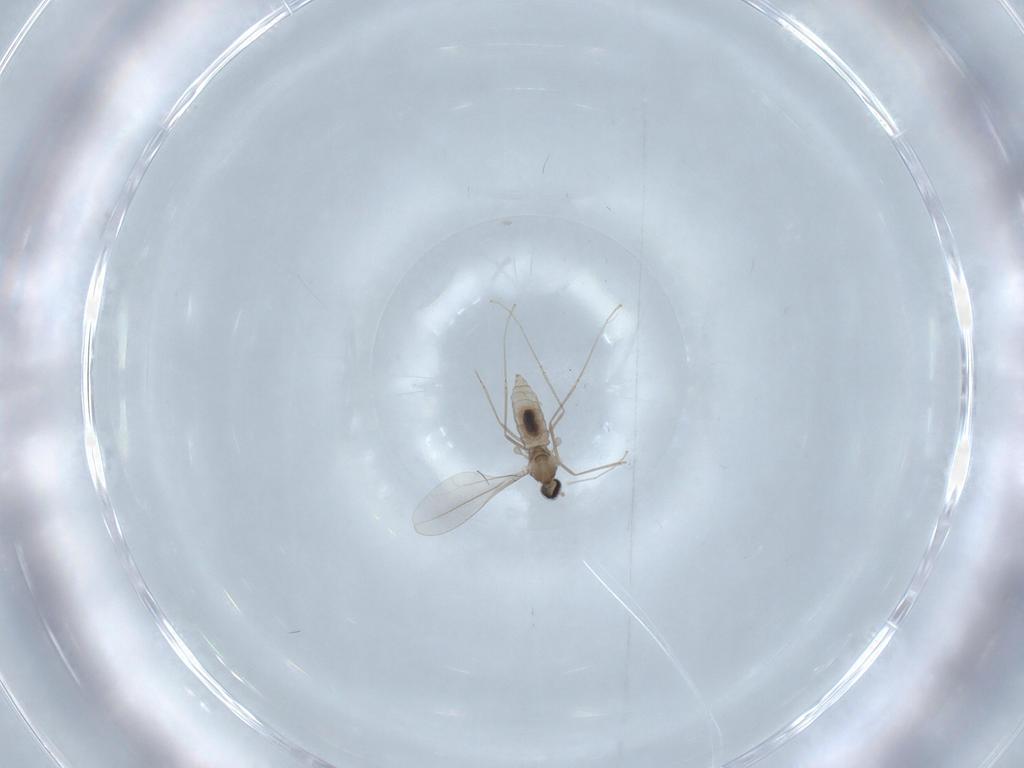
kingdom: Animalia
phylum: Arthropoda
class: Insecta
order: Diptera
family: Cecidomyiidae
